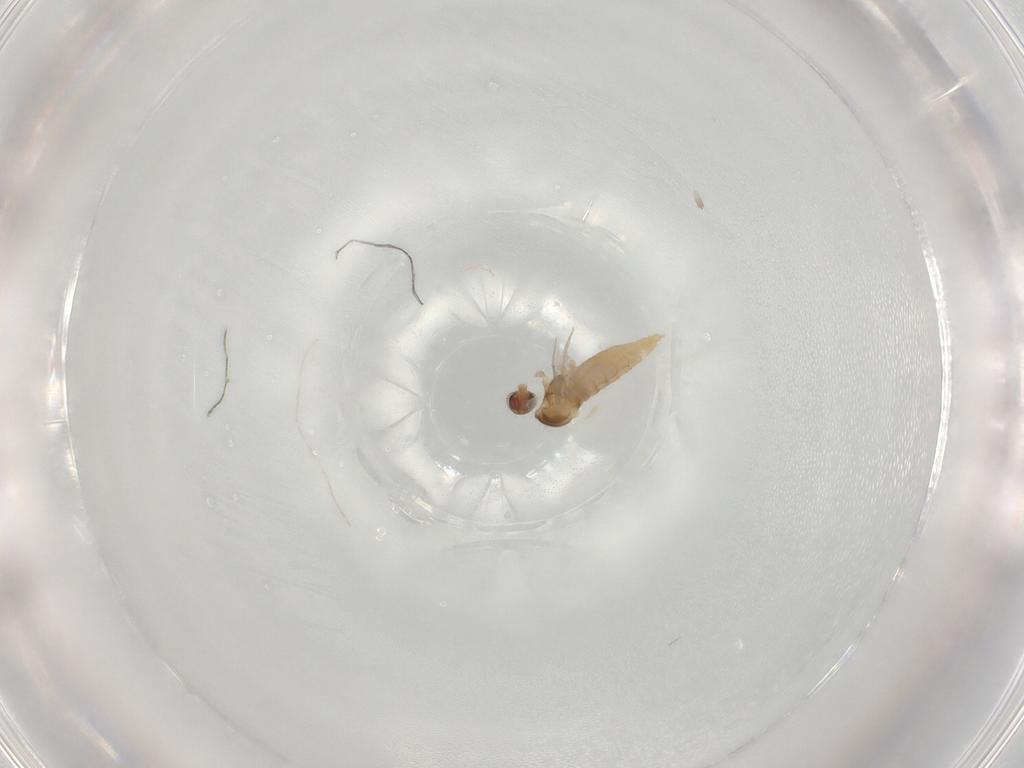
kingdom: Animalia
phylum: Arthropoda
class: Insecta
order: Diptera
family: Cecidomyiidae
